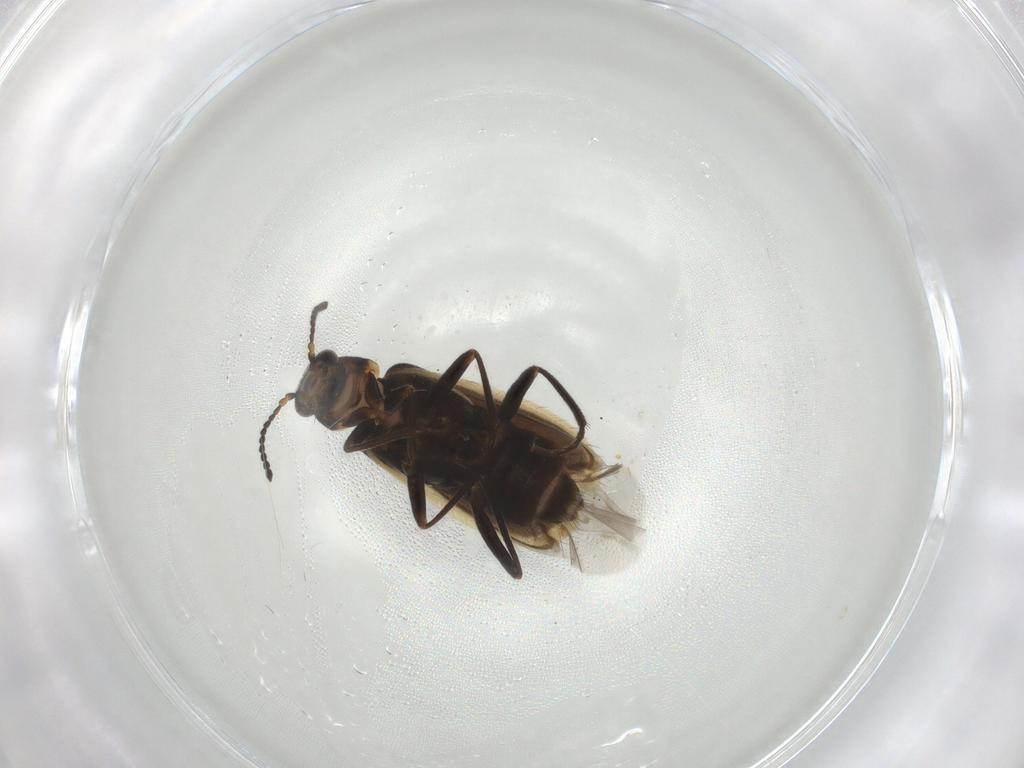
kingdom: Animalia
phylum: Arthropoda
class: Insecta
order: Coleoptera
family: Melyridae
